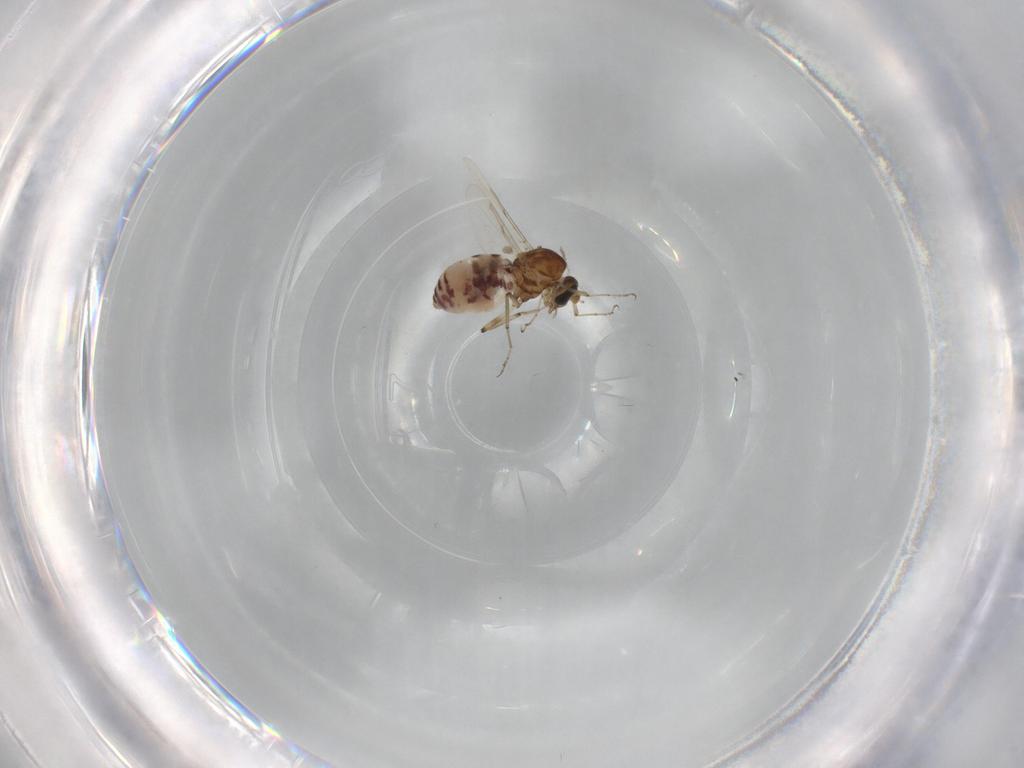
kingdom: Animalia
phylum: Arthropoda
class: Insecta
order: Diptera
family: Ceratopogonidae
